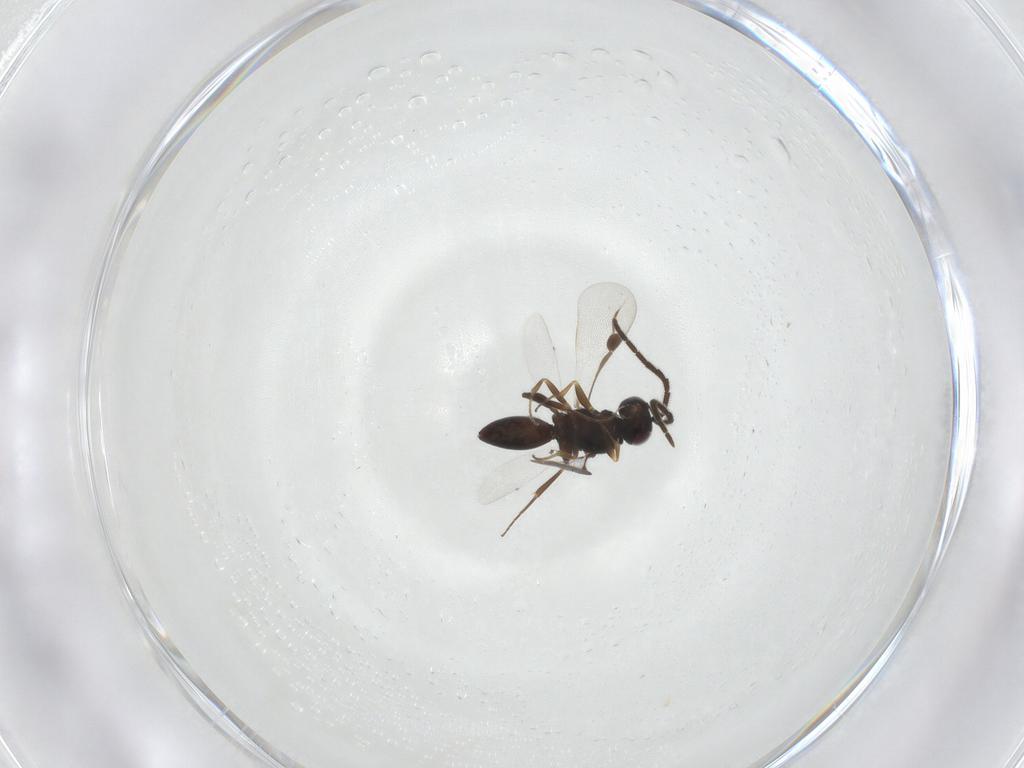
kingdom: Animalia
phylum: Arthropoda
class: Insecta
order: Hymenoptera
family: Megaspilidae
